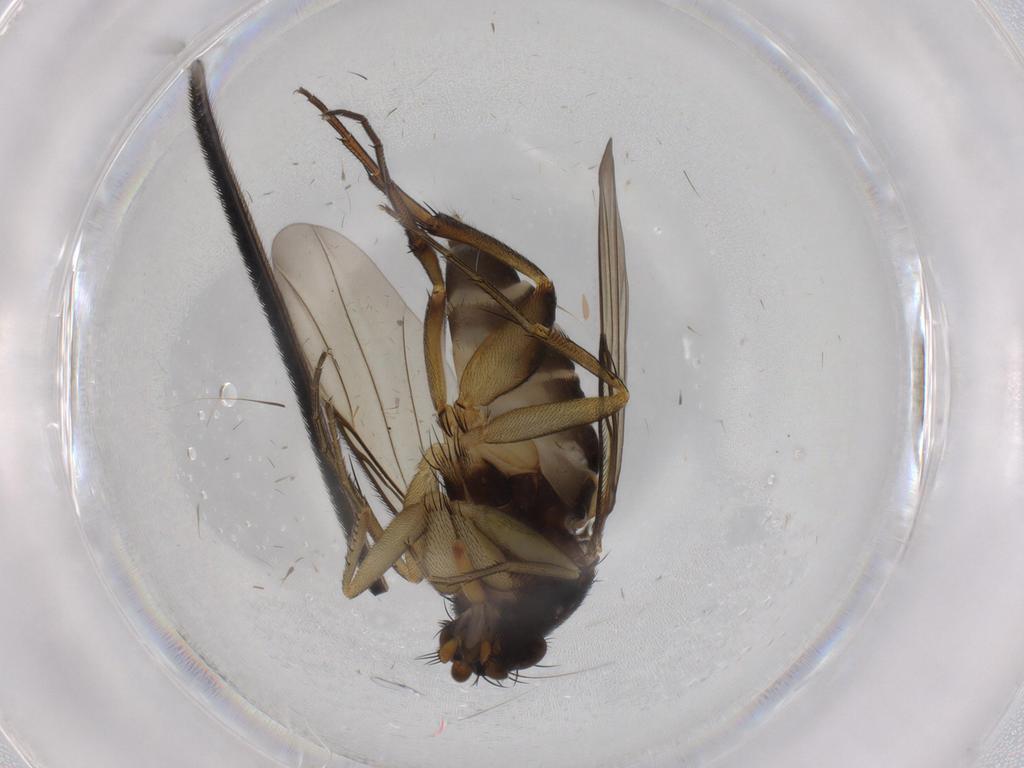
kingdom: Animalia
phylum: Arthropoda
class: Insecta
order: Diptera
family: Phoridae
